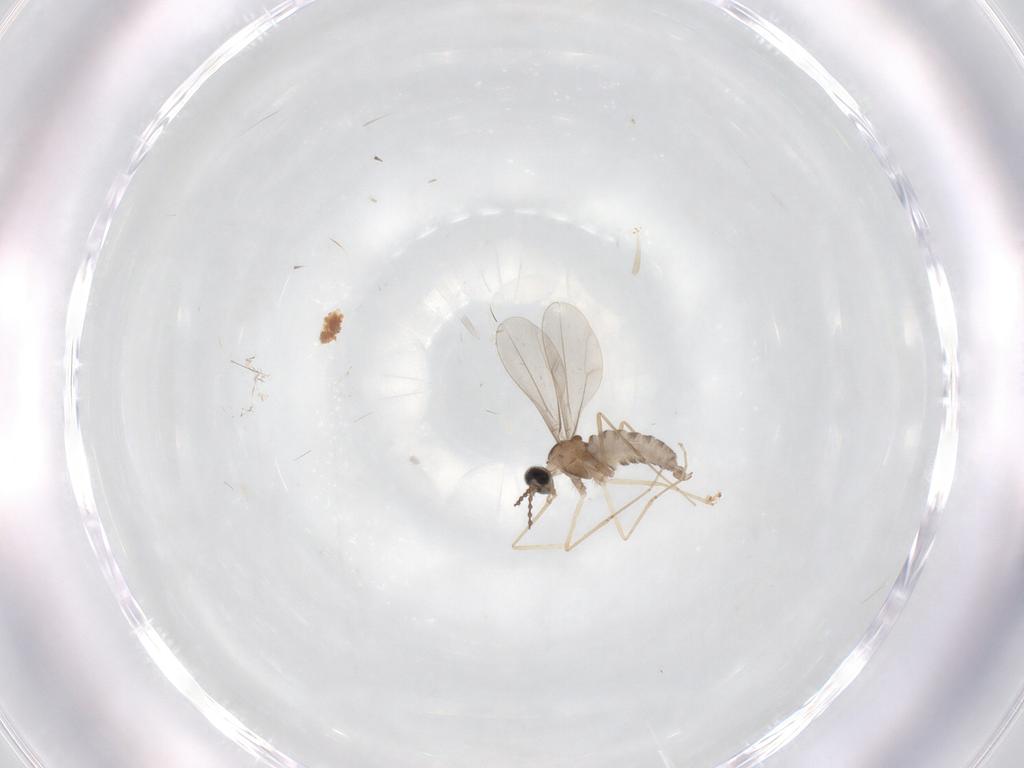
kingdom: Animalia
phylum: Arthropoda
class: Insecta
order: Diptera
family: Cecidomyiidae
